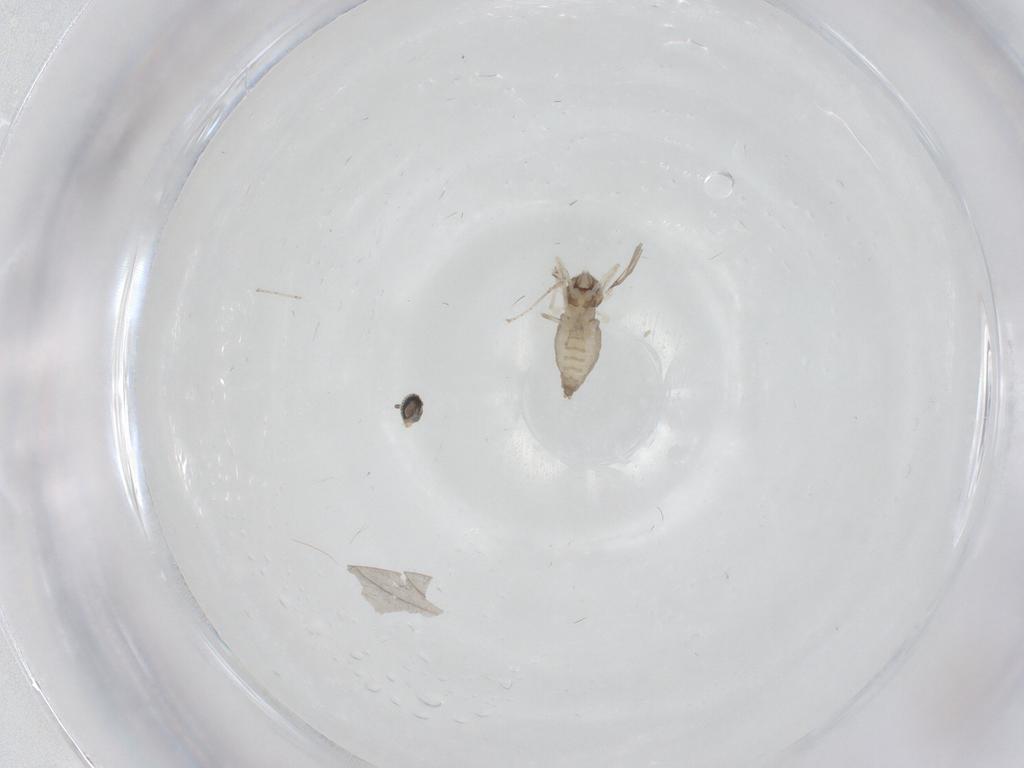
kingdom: Animalia
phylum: Arthropoda
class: Insecta
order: Diptera
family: Cecidomyiidae
